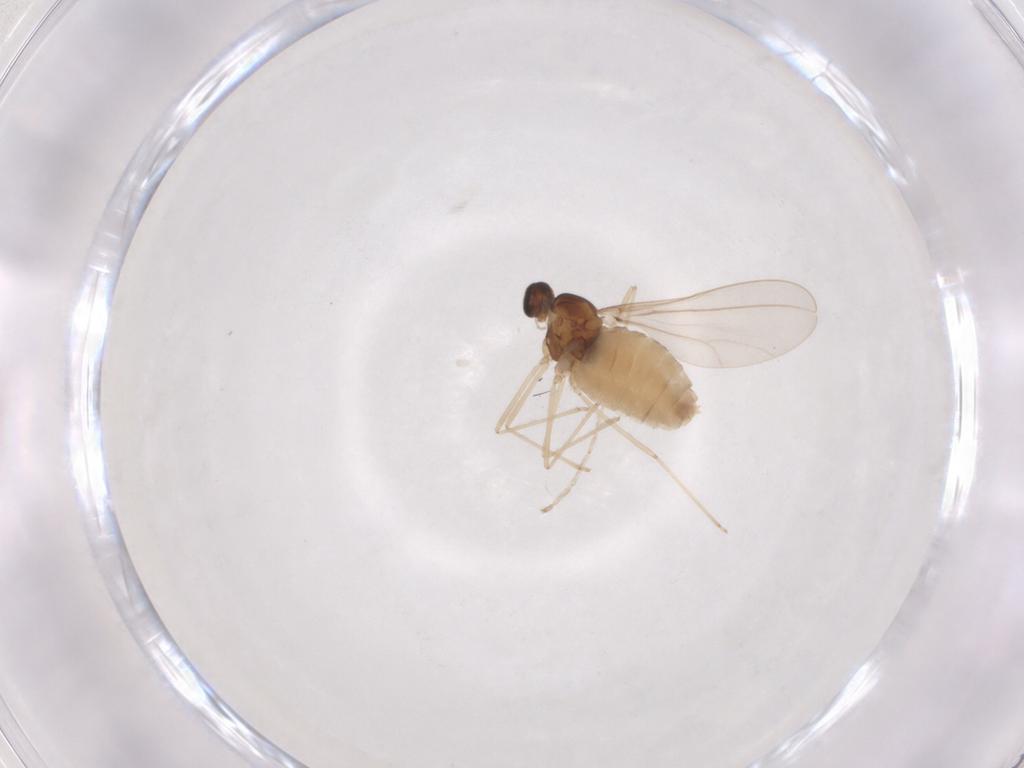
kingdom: Animalia
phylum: Arthropoda
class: Insecta
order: Diptera
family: Cecidomyiidae
